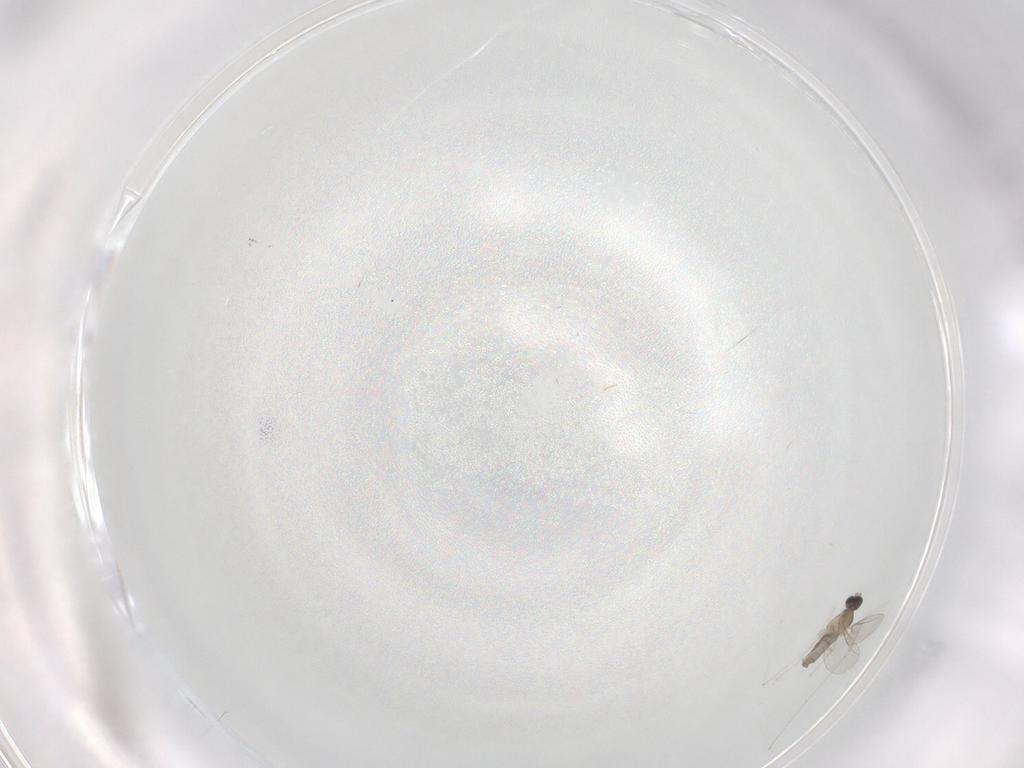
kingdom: Animalia
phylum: Arthropoda
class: Insecta
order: Diptera
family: Cecidomyiidae
